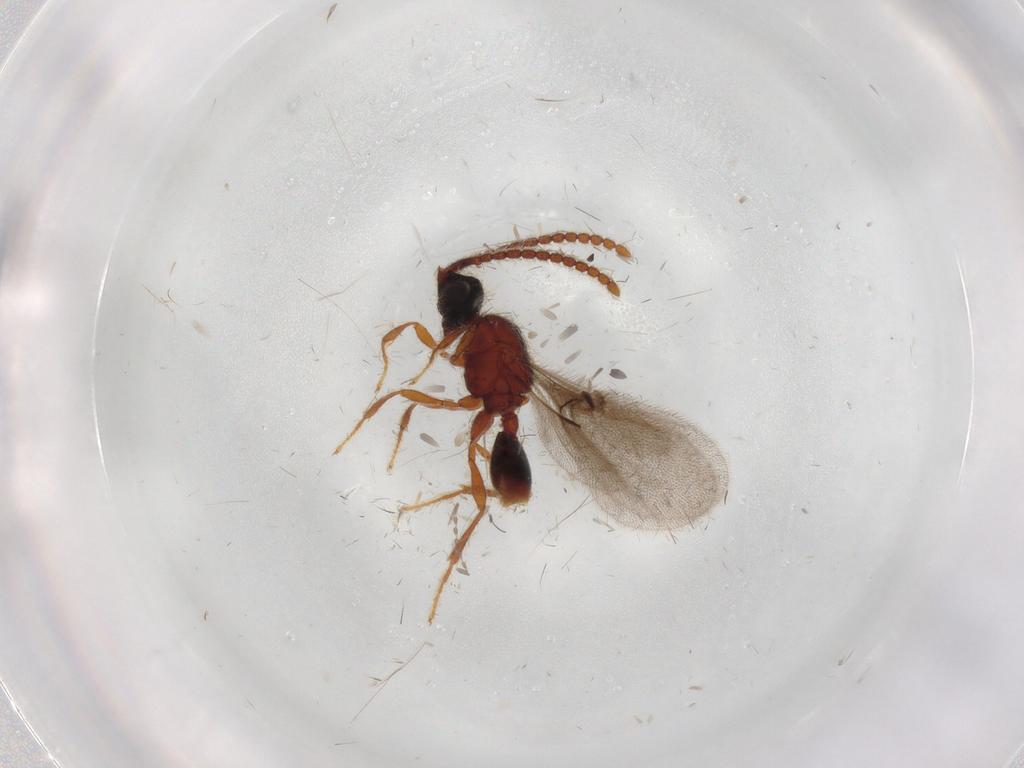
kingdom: Animalia
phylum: Arthropoda
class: Insecta
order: Hymenoptera
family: Diapriidae
